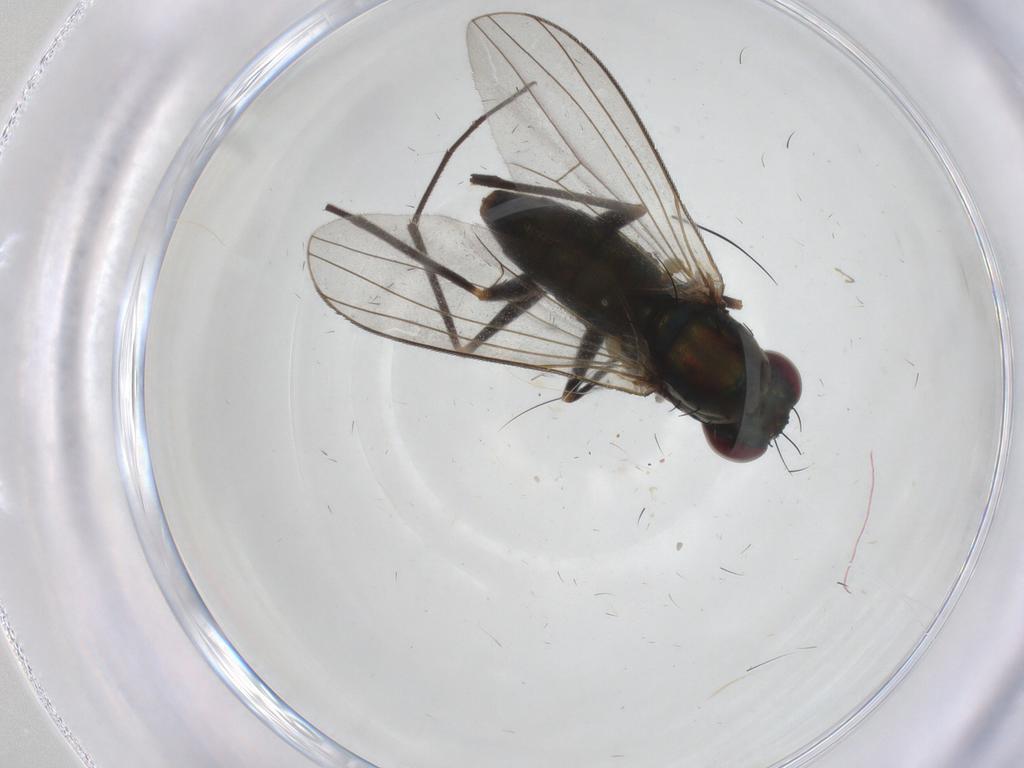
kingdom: Animalia
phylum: Arthropoda
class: Insecta
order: Diptera
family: Dolichopodidae
